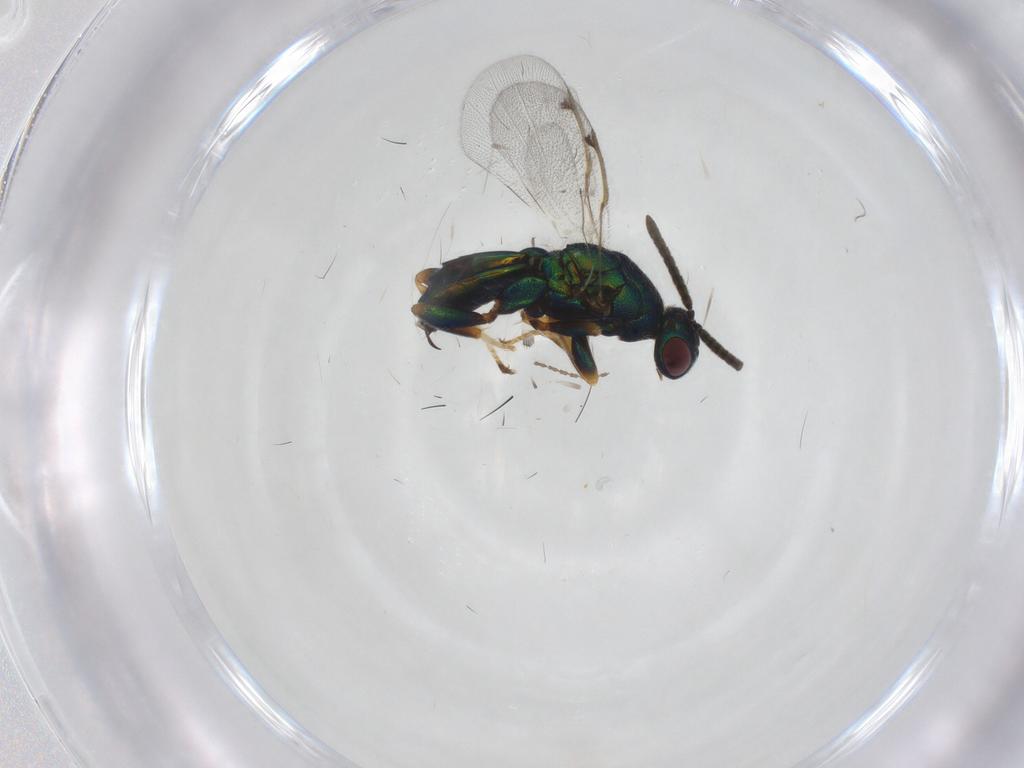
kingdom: Animalia
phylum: Arthropoda
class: Insecta
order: Hymenoptera
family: Torymidae
